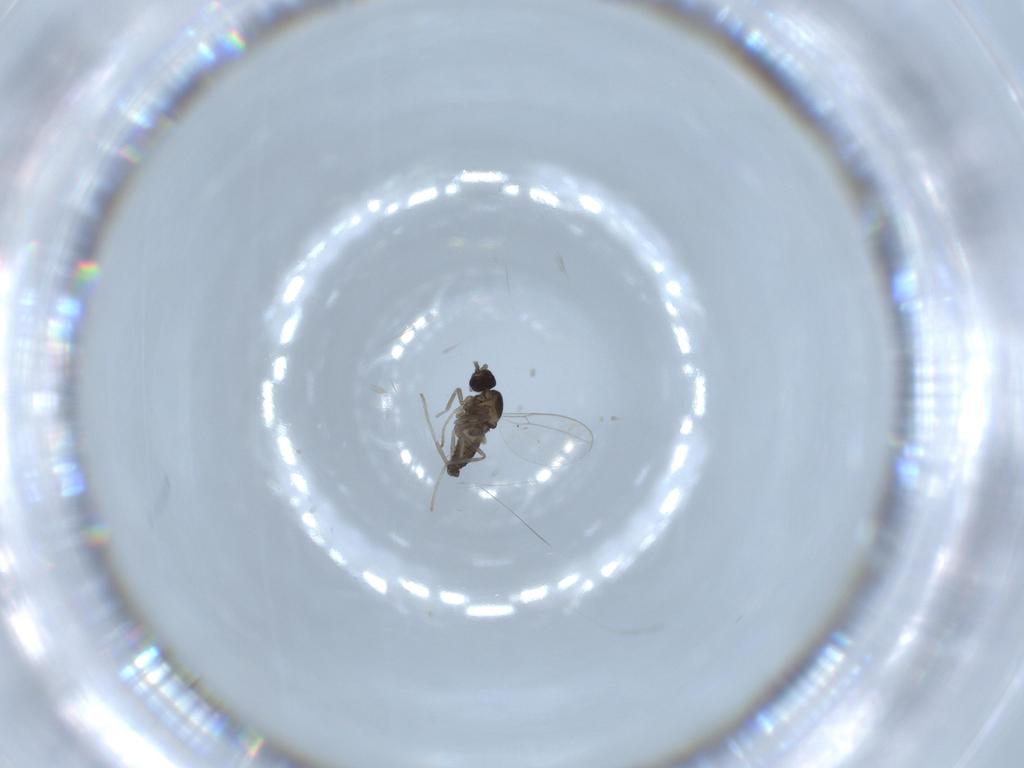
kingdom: Animalia
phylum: Arthropoda
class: Insecta
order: Diptera
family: Cecidomyiidae
